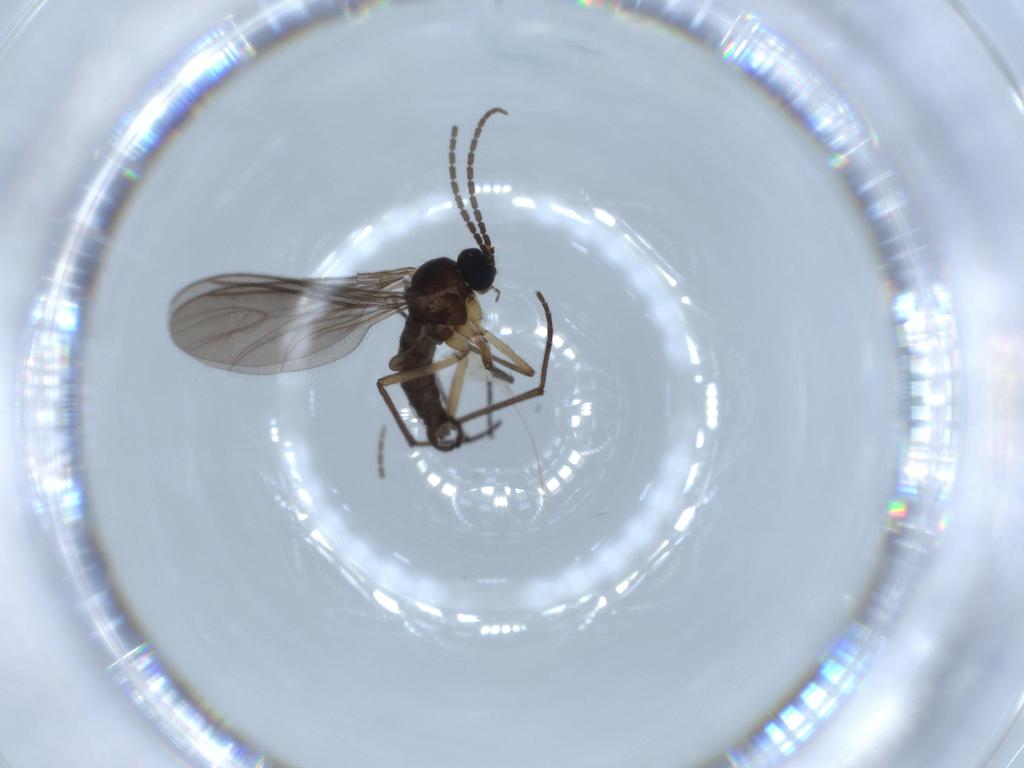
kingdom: Animalia
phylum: Arthropoda
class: Insecta
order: Diptera
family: Sciaridae
